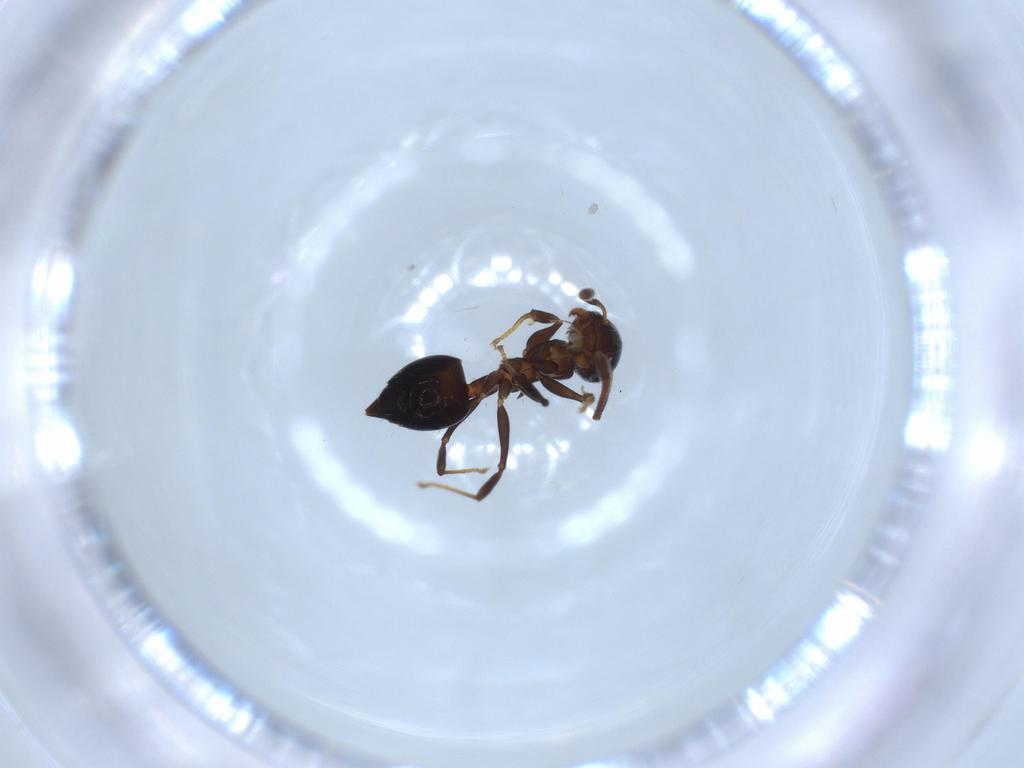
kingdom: Animalia
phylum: Arthropoda
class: Insecta
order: Hymenoptera
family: Formicidae
